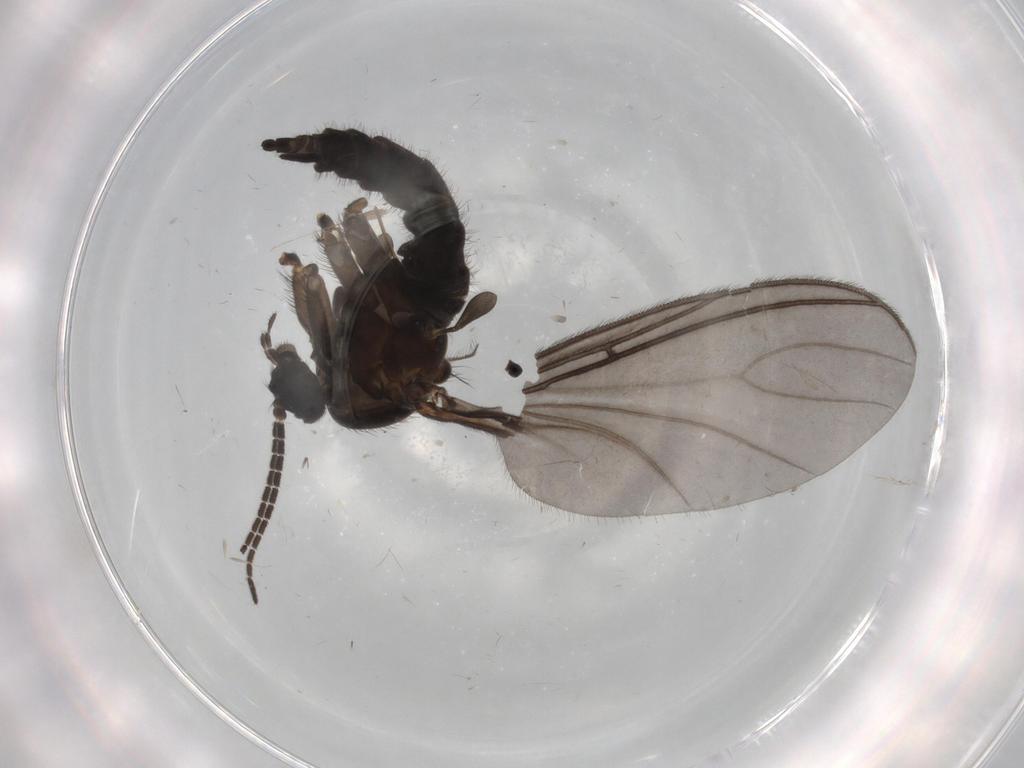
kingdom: Animalia
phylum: Arthropoda
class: Insecta
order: Diptera
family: Sciaridae
